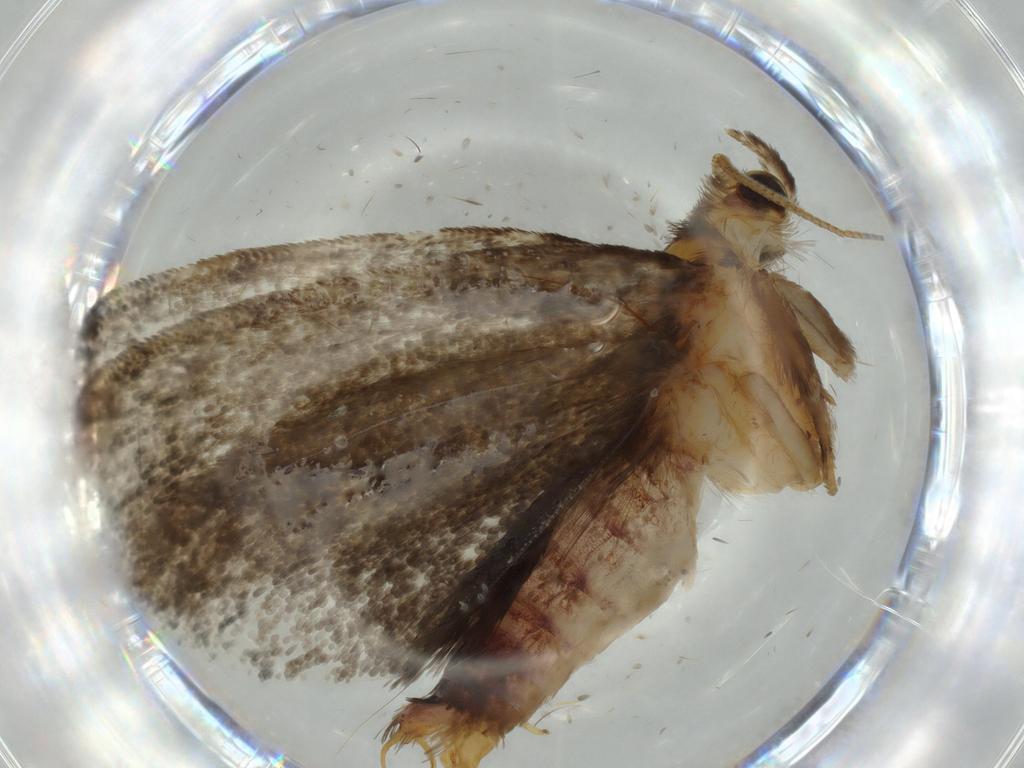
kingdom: Animalia
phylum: Arthropoda
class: Insecta
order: Lepidoptera
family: Tineidae
